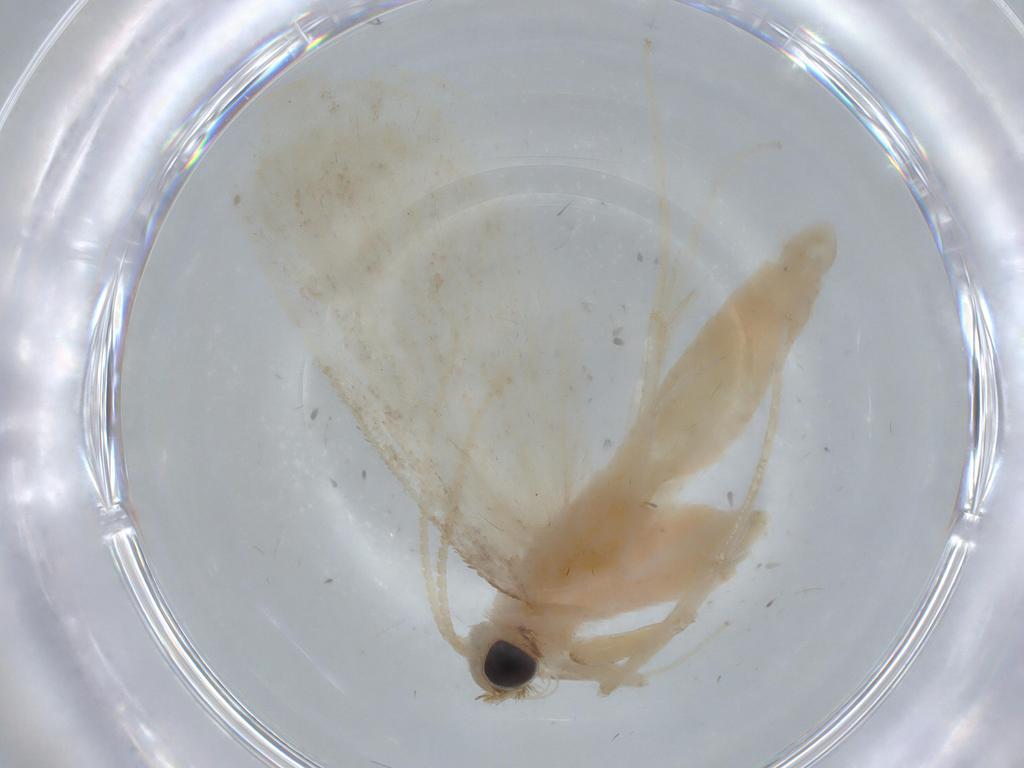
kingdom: Animalia
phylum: Arthropoda
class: Insecta
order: Lepidoptera
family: Crambidae
